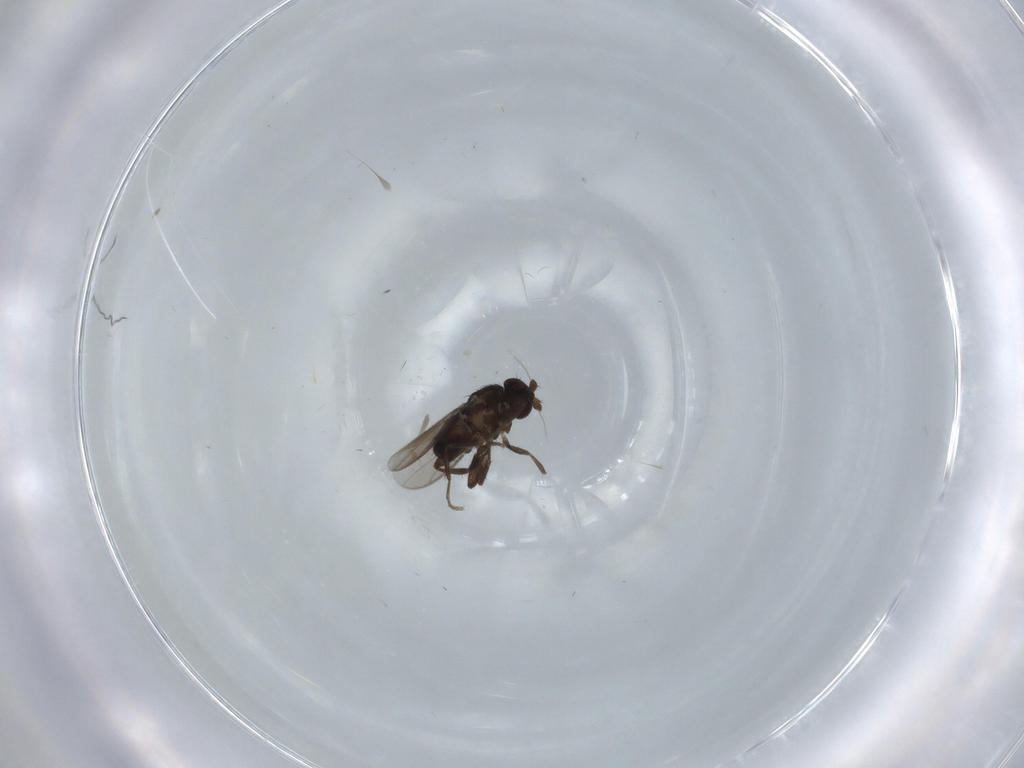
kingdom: Animalia
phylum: Arthropoda
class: Insecta
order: Diptera
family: Sphaeroceridae
